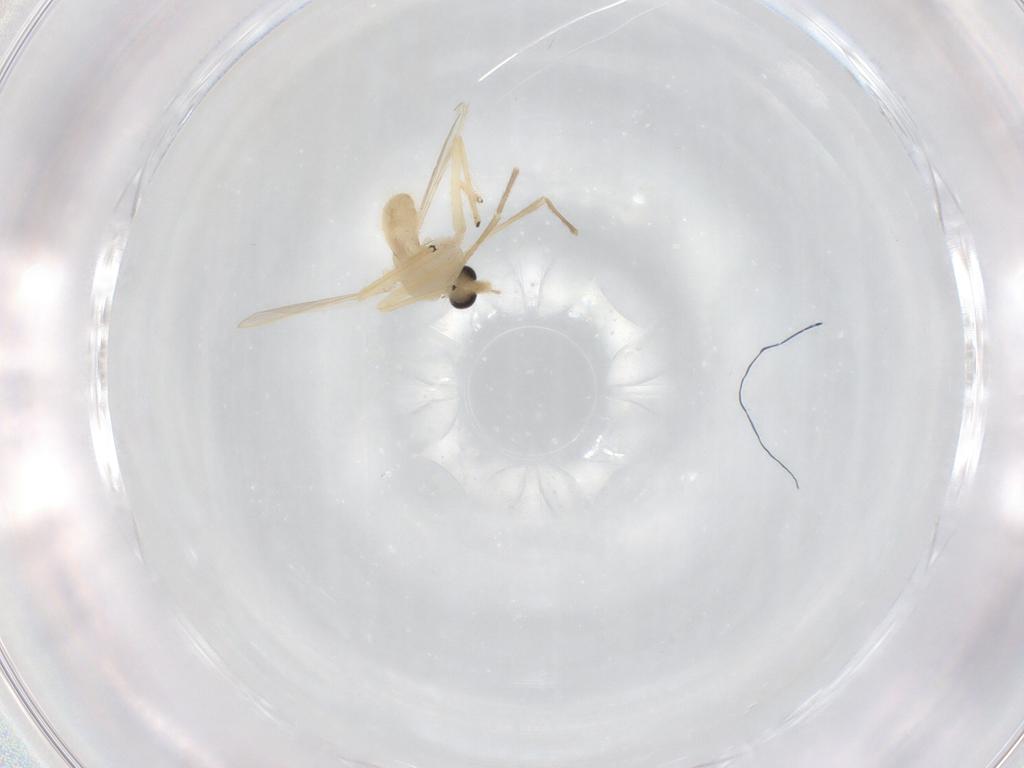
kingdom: Animalia
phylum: Arthropoda
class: Insecta
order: Diptera
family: Chironomidae
